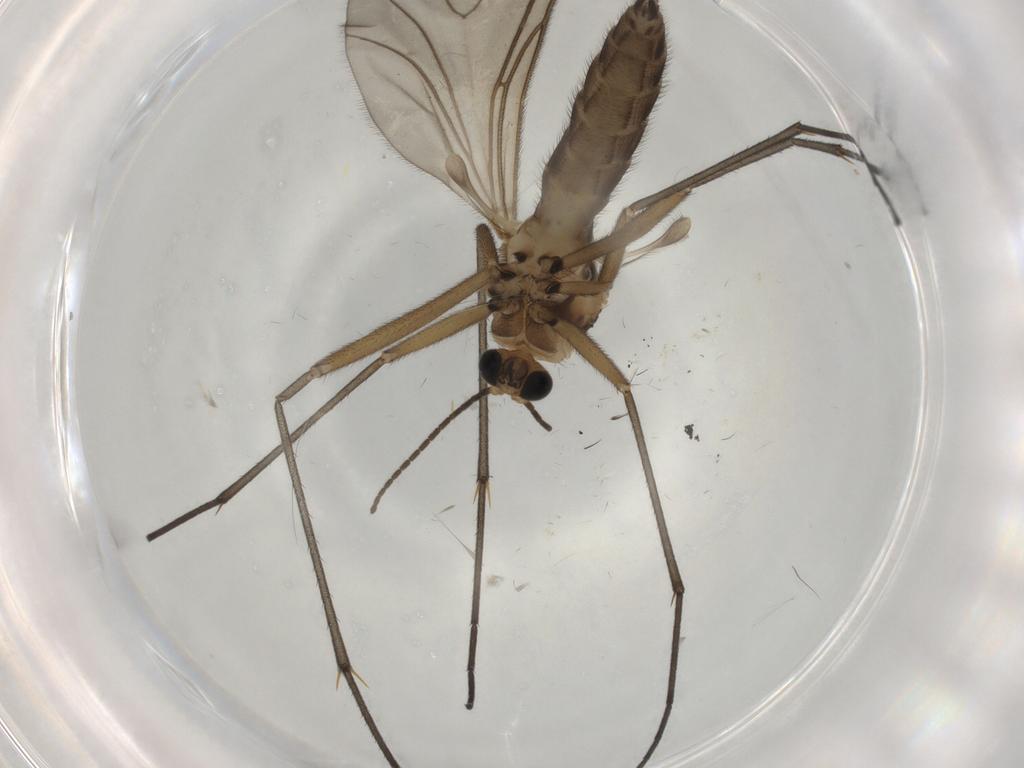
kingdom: Animalia
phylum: Arthropoda
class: Insecta
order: Diptera
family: Sciaridae
